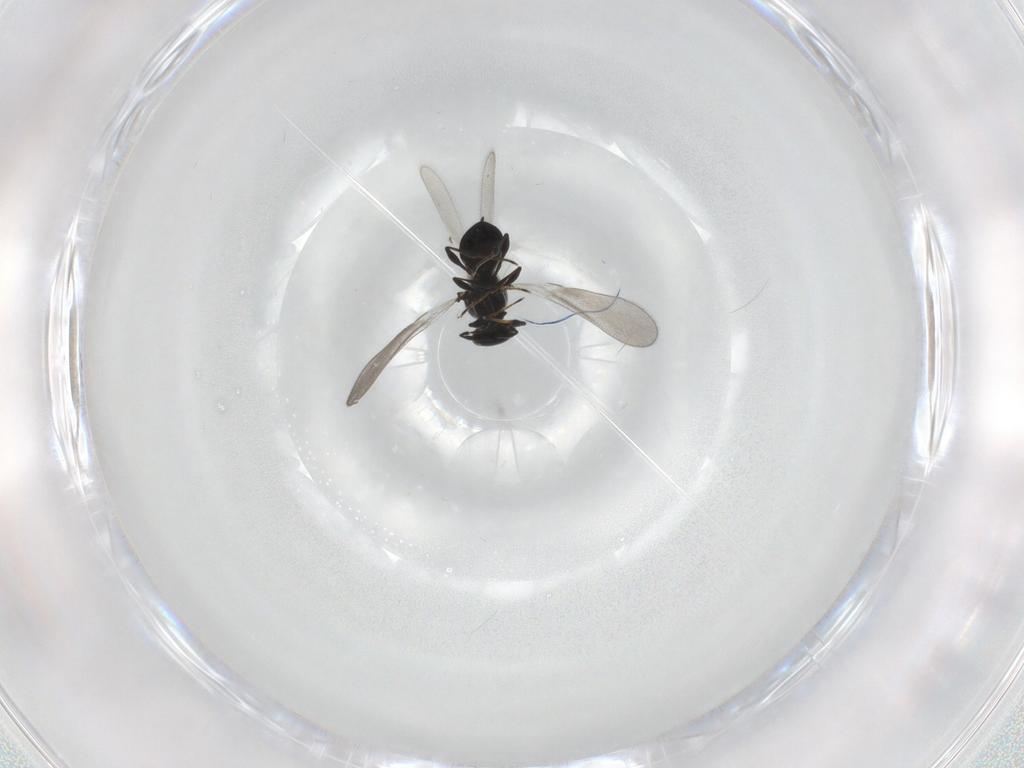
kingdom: Animalia
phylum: Arthropoda
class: Insecta
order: Hymenoptera
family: Platygastridae
